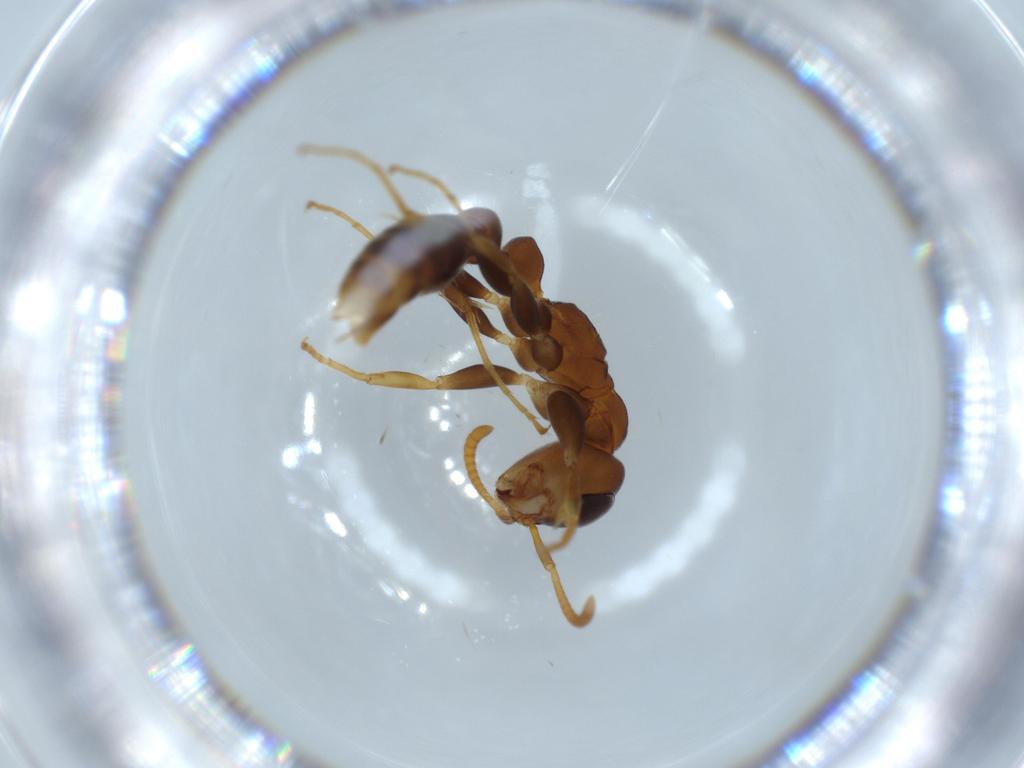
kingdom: Animalia
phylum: Arthropoda
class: Insecta
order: Hymenoptera
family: Formicidae
